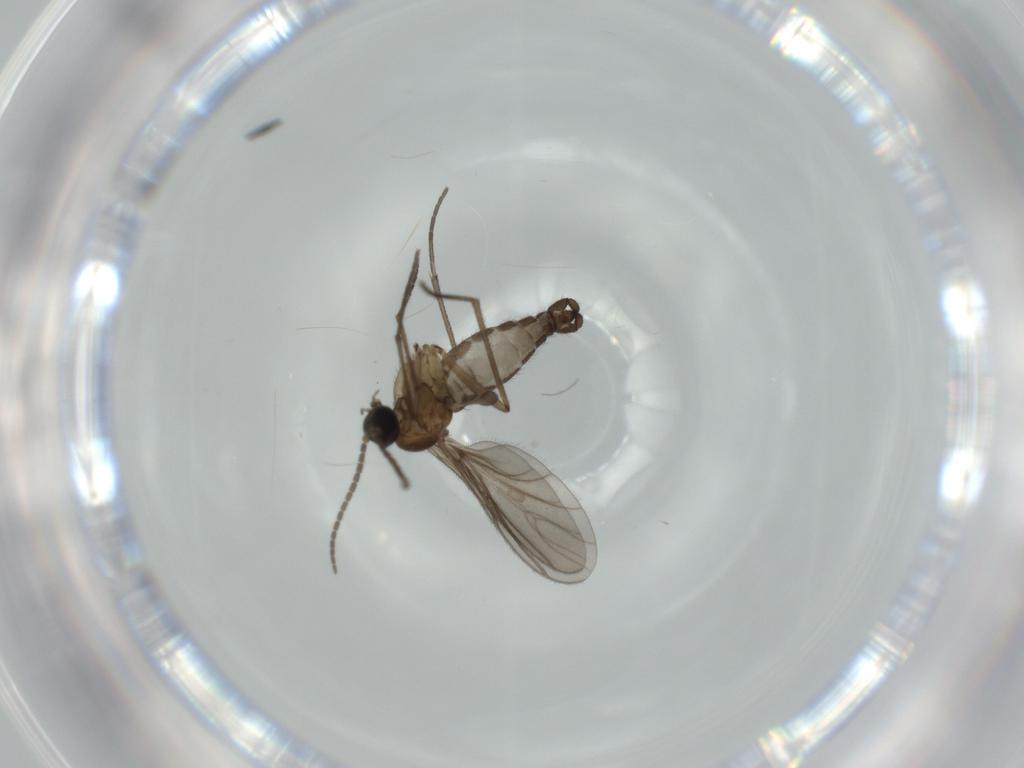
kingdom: Animalia
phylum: Arthropoda
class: Insecta
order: Diptera
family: Sciaridae
